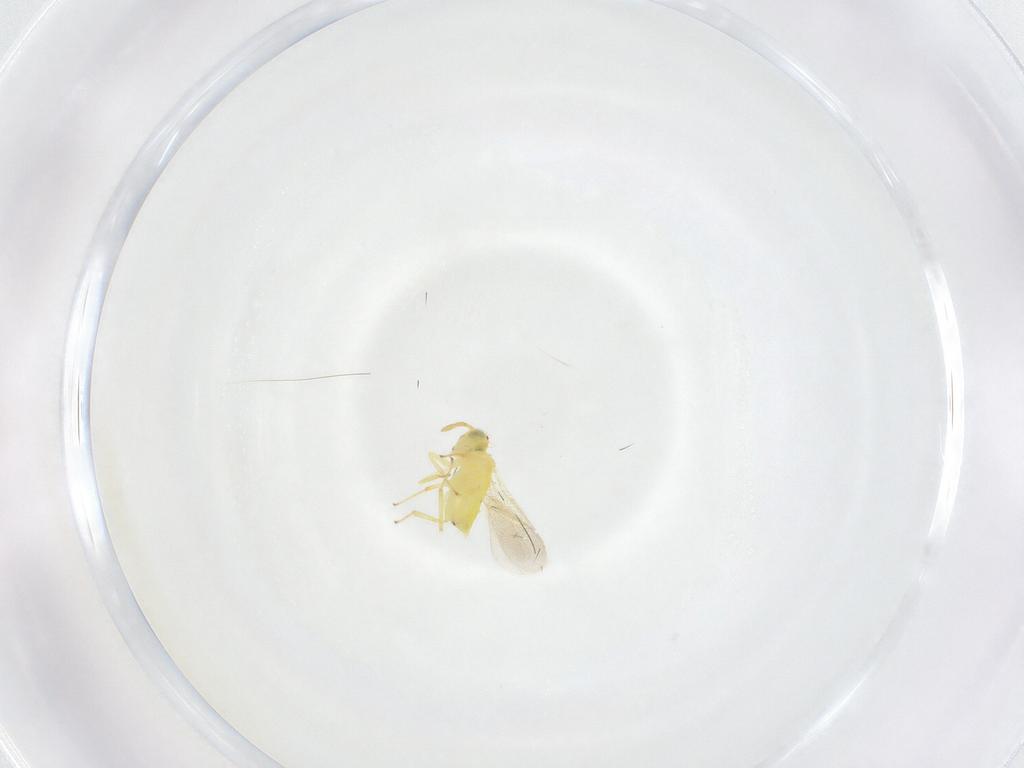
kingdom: Animalia
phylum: Arthropoda
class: Insecta
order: Hymenoptera
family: Aphelinidae
